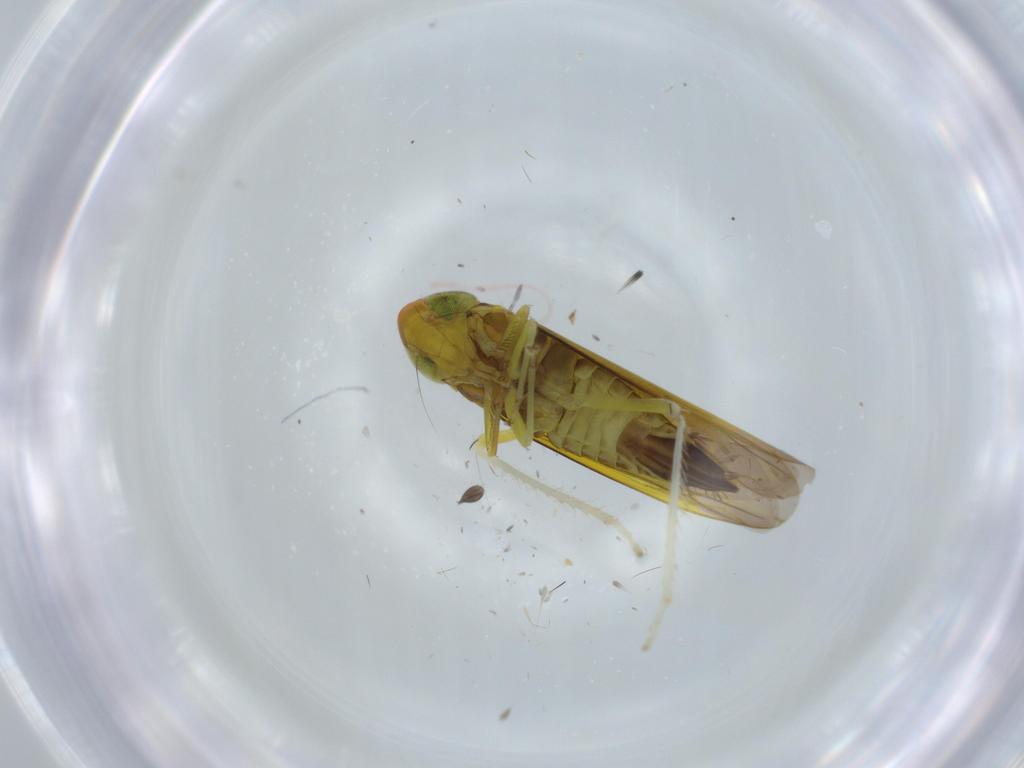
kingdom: Animalia
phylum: Arthropoda
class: Insecta
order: Hemiptera
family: Cicadellidae
